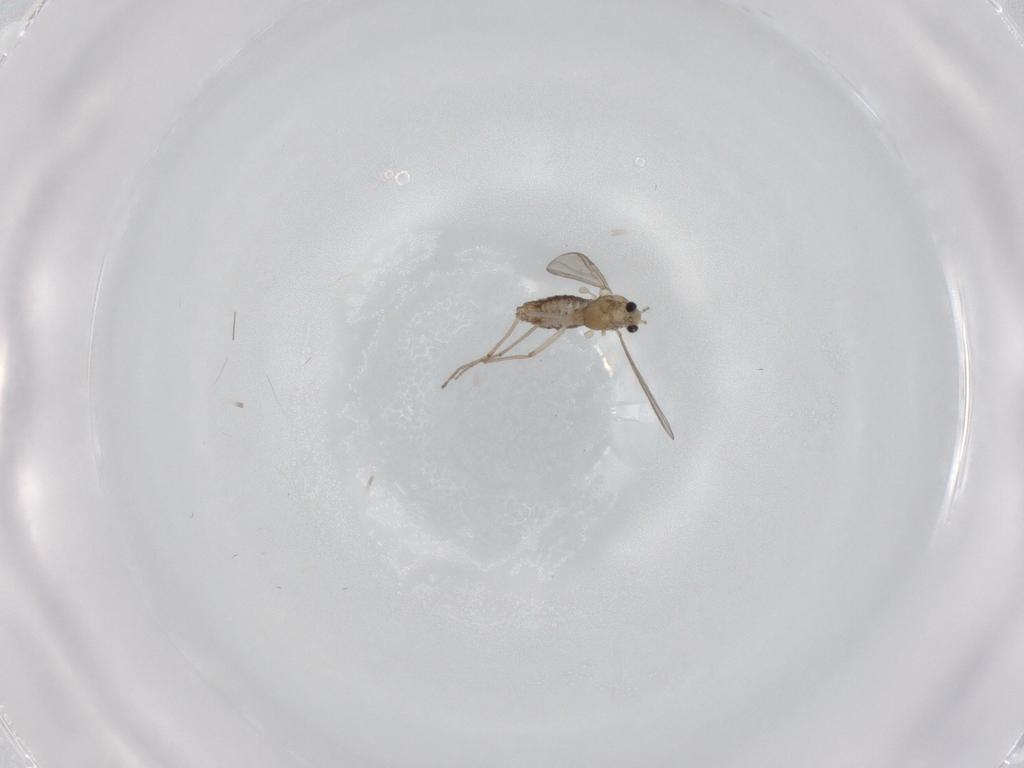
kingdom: Animalia
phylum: Arthropoda
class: Insecta
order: Diptera
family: Chironomidae
